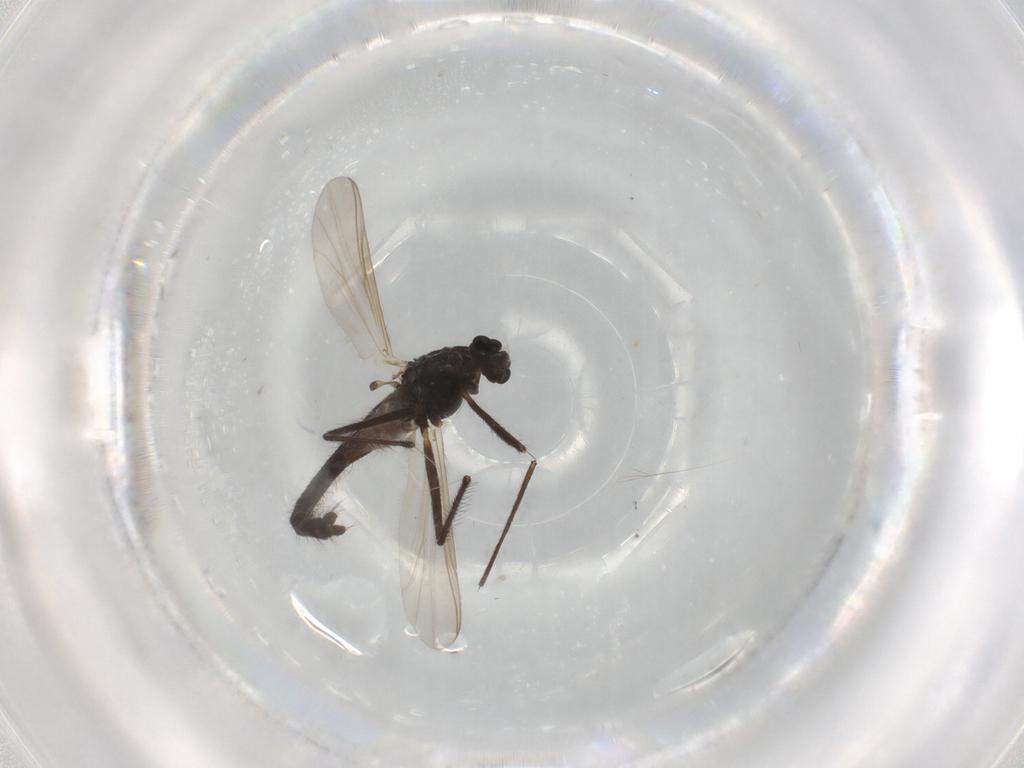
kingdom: Animalia
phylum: Arthropoda
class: Insecta
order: Diptera
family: Chironomidae
